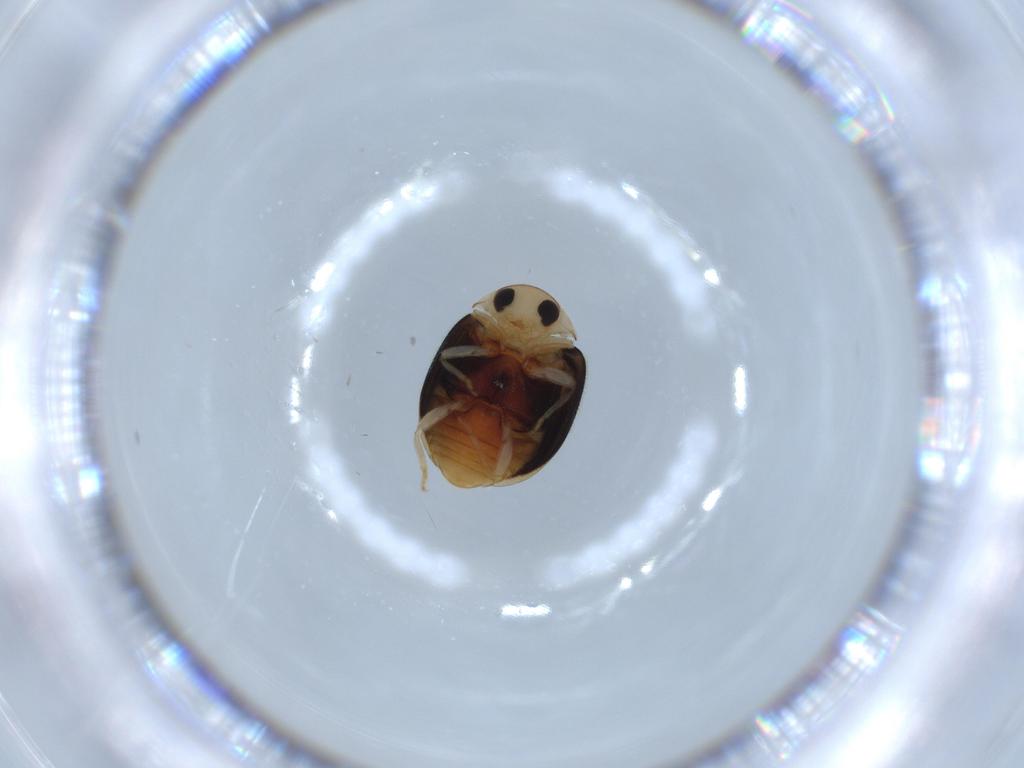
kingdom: Animalia
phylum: Arthropoda
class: Insecta
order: Coleoptera
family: Coccinellidae
